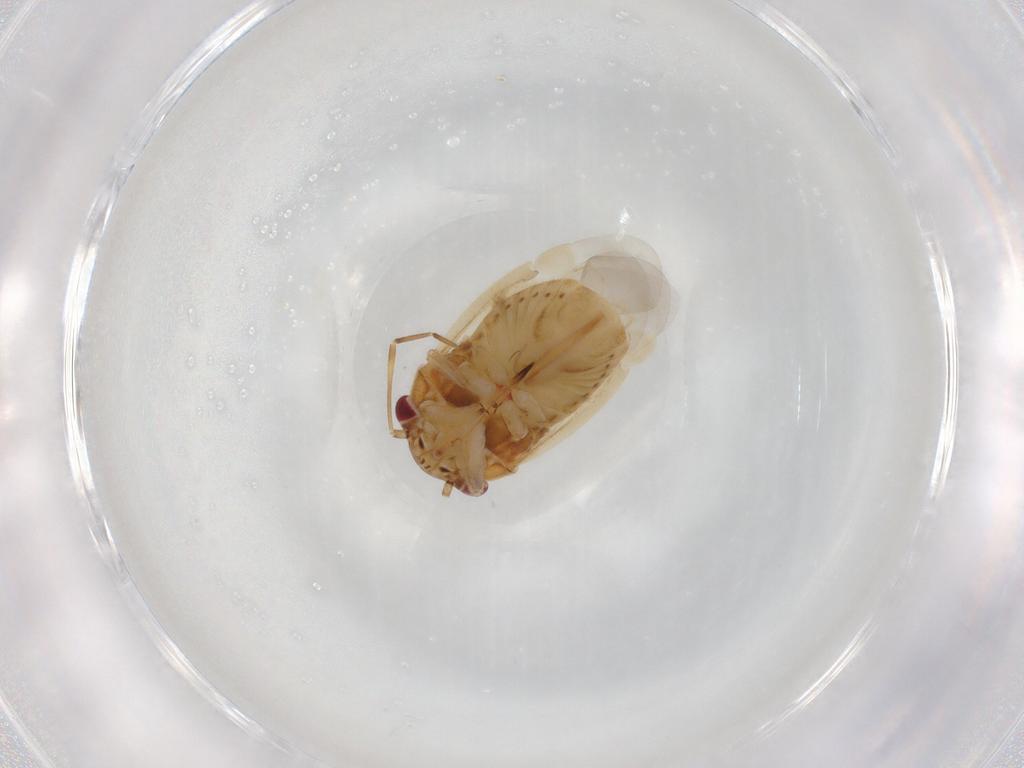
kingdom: Animalia
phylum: Arthropoda
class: Insecta
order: Hemiptera
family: Miridae
